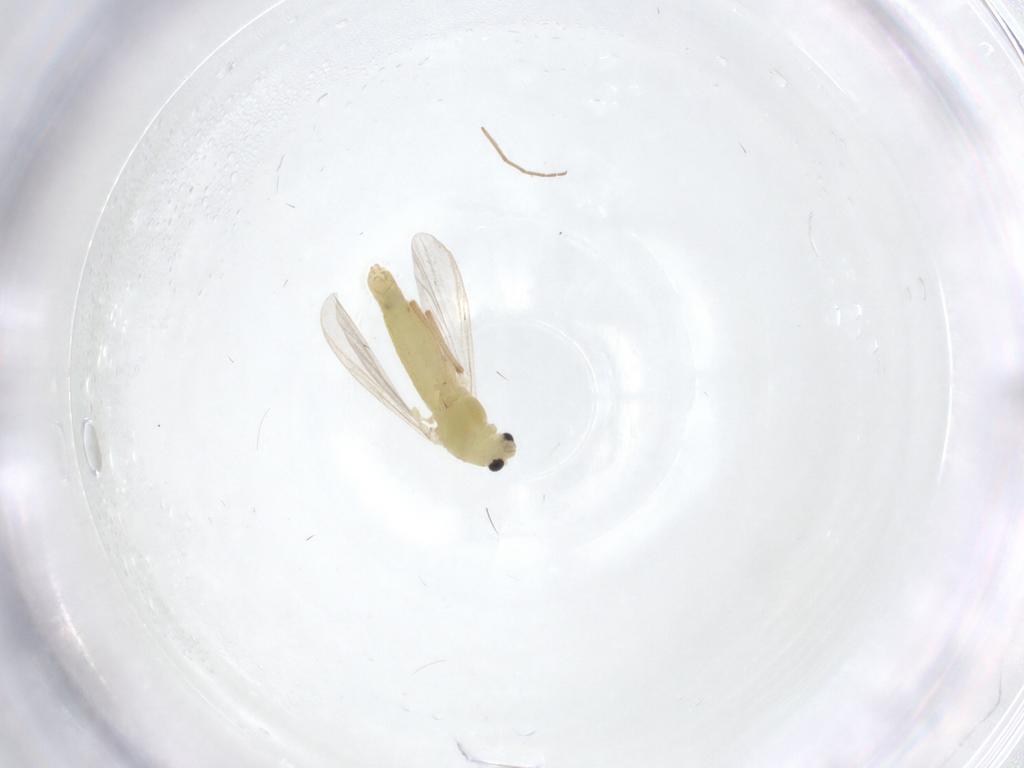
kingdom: Animalia
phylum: Arthropoda
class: Insecta
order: Diptera
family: Chironomidae
